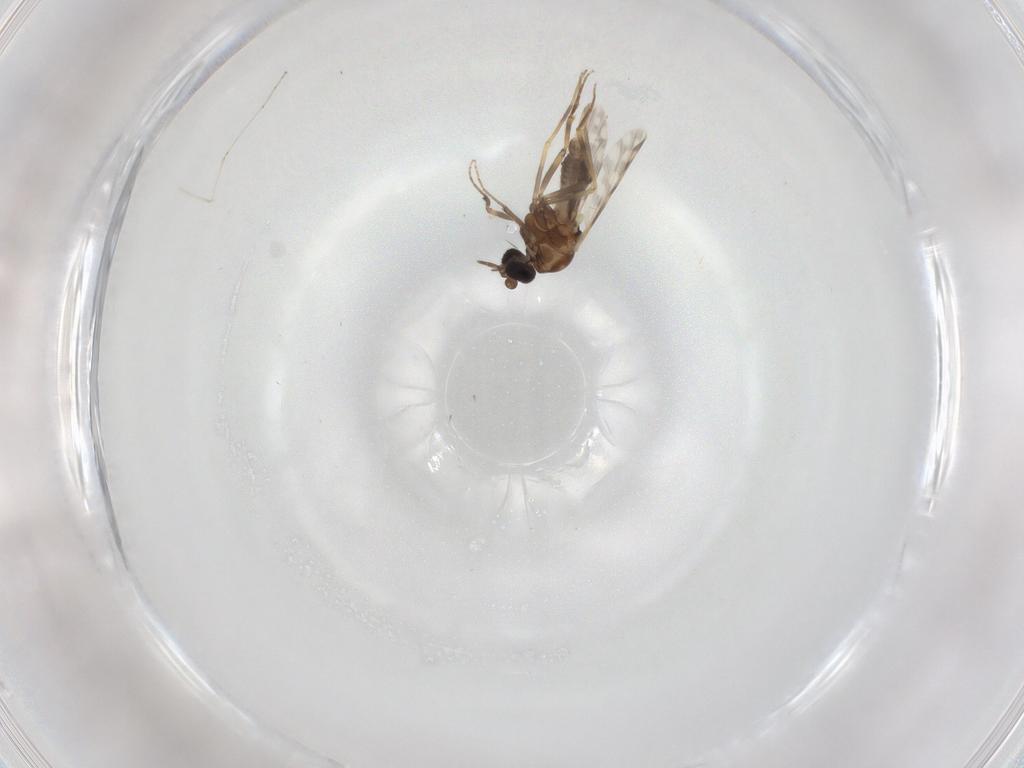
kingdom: Animalia
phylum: Arthropoda
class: Insecta
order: Diptera
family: Ceratopogonidae
